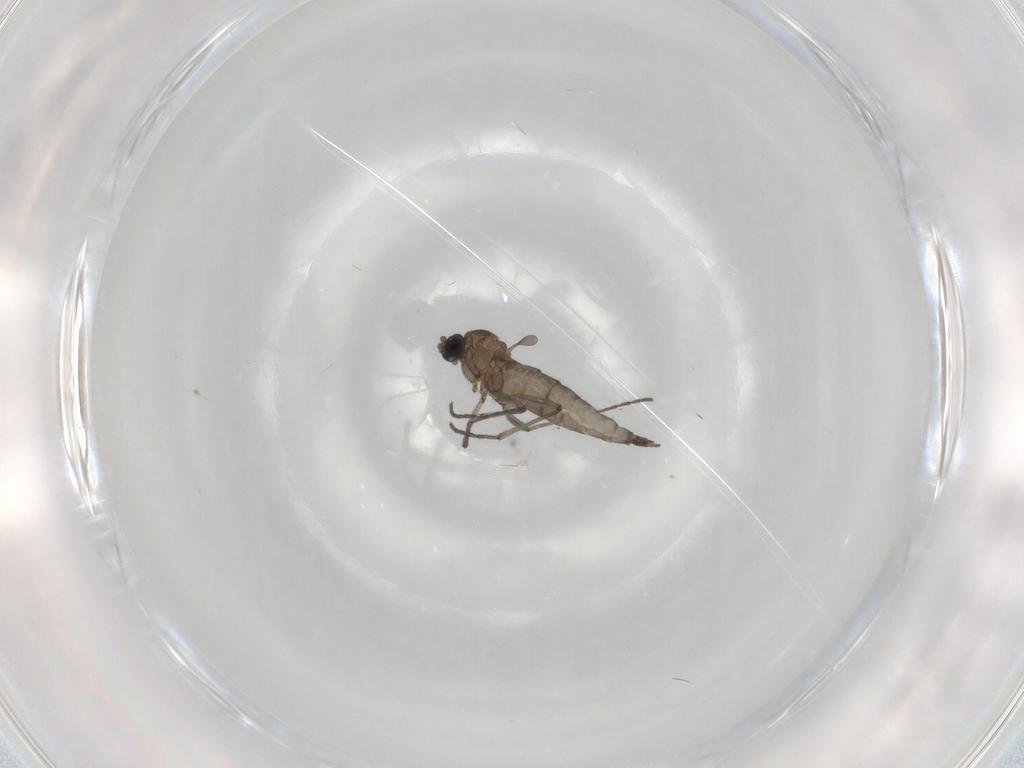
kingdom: Animalia
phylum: Arthropoda
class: Insecta
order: Diptera
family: Sciaridae
